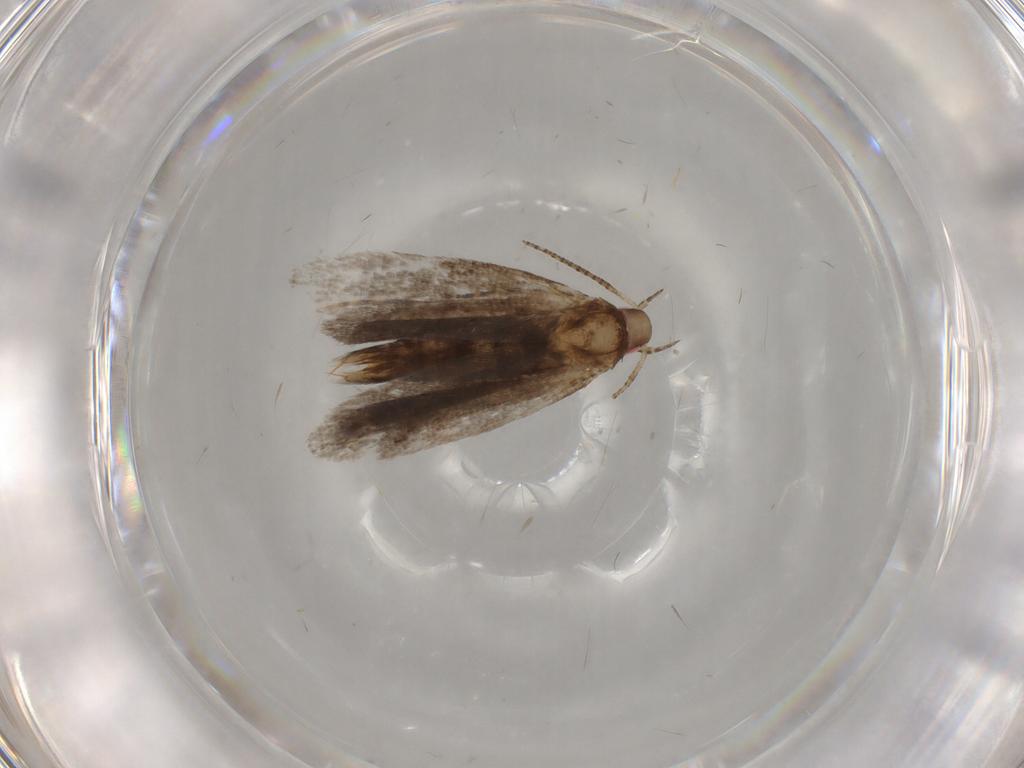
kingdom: Animalia
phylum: Arthropoda
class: Insecta
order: Lepidoptera
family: Gelechiidae
